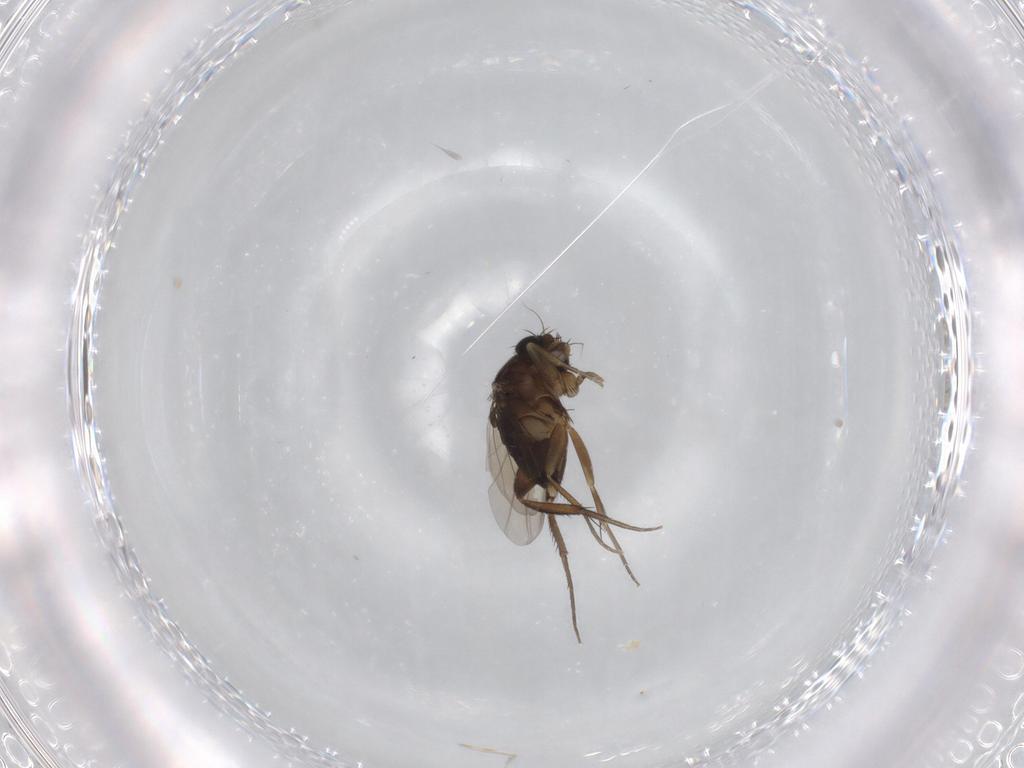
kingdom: Animalia
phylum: Arthropoda
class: Insecta
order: Diptera
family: Phoridae
